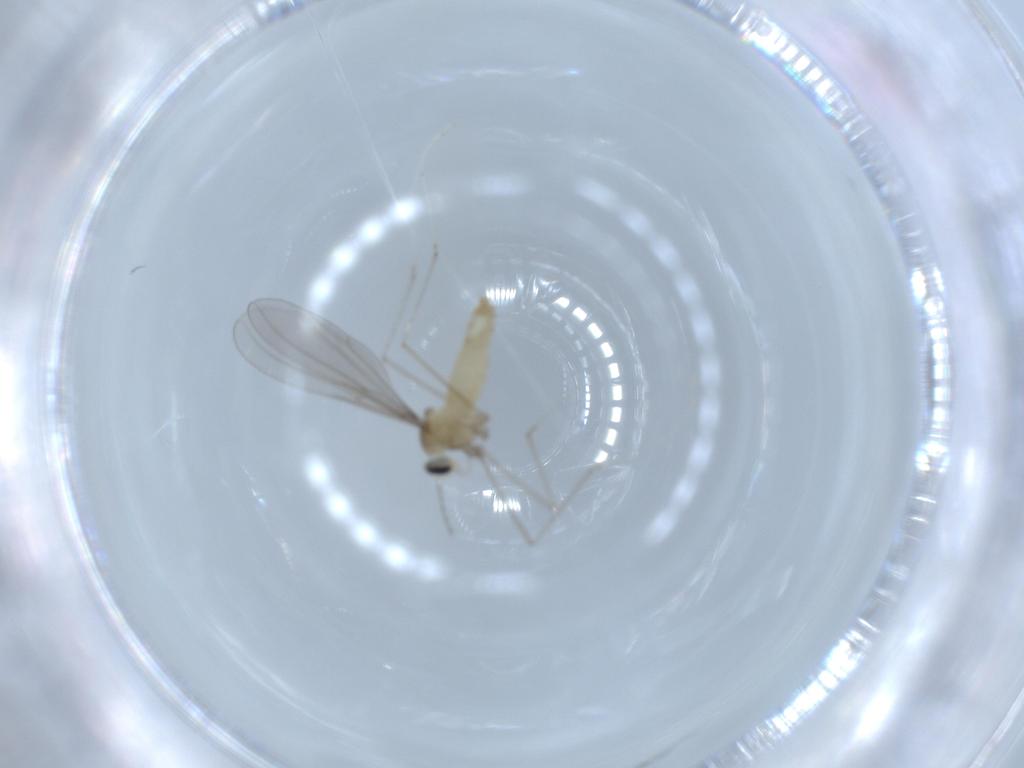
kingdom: Animalia
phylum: Arthropoda
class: Insecta
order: Diptera
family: Cecidomyiidae
